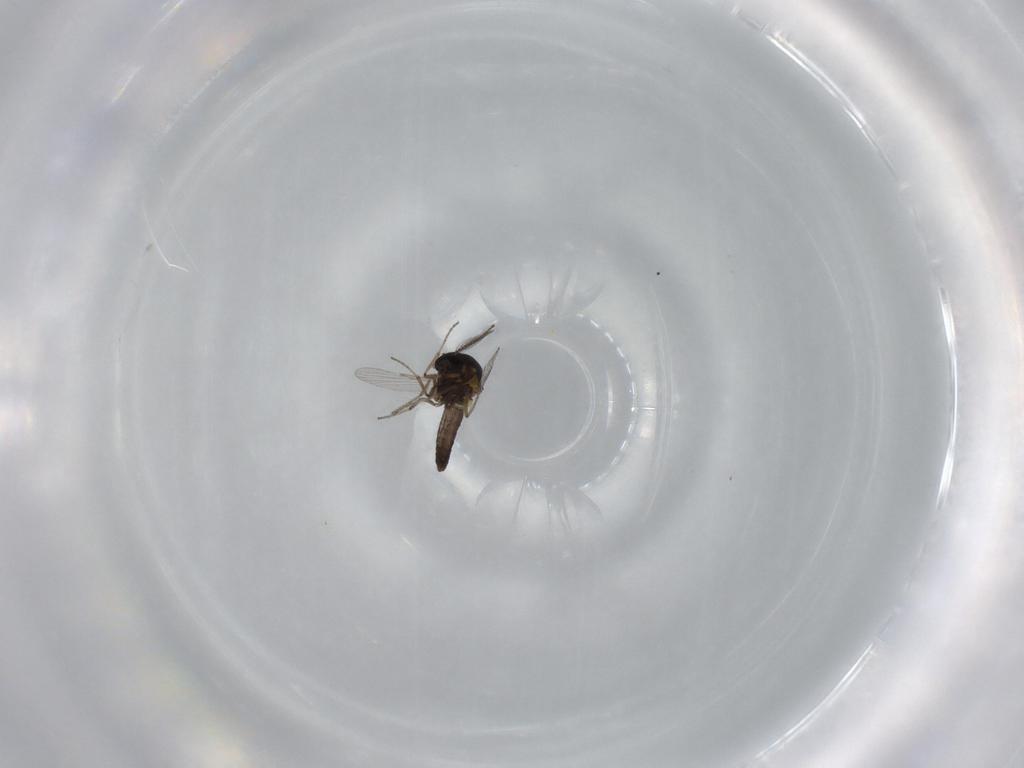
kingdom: Animalia
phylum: Arthropoda
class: Insecta
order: Diptera
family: Ceratopogonidae
